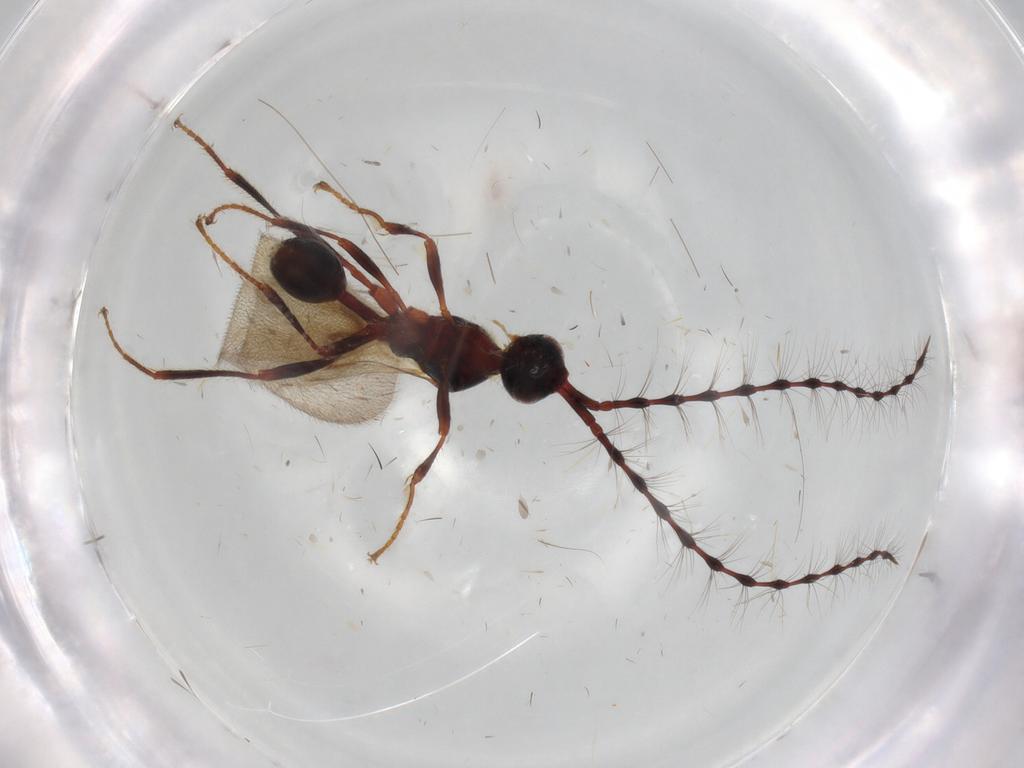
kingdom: Animalia
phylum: Arthropoda
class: Insecta
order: Hymenoptera
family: Diapriidae
